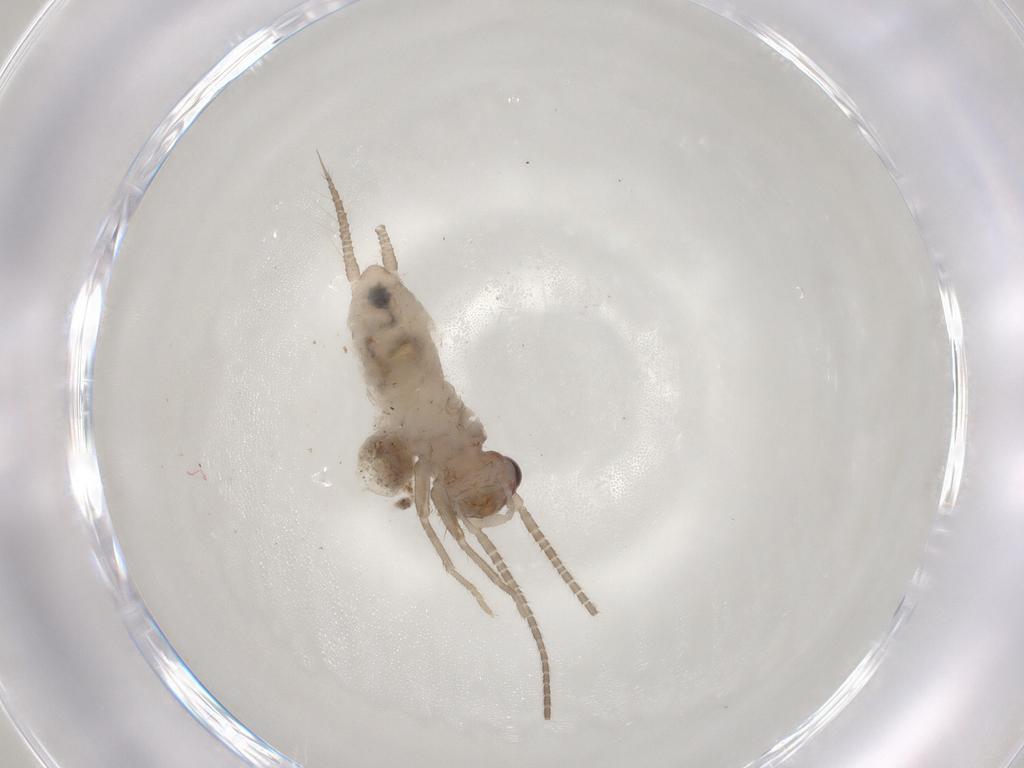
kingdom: Animalia
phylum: Arthropoda
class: Insecta
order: Orthoptera
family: Gryllidae
